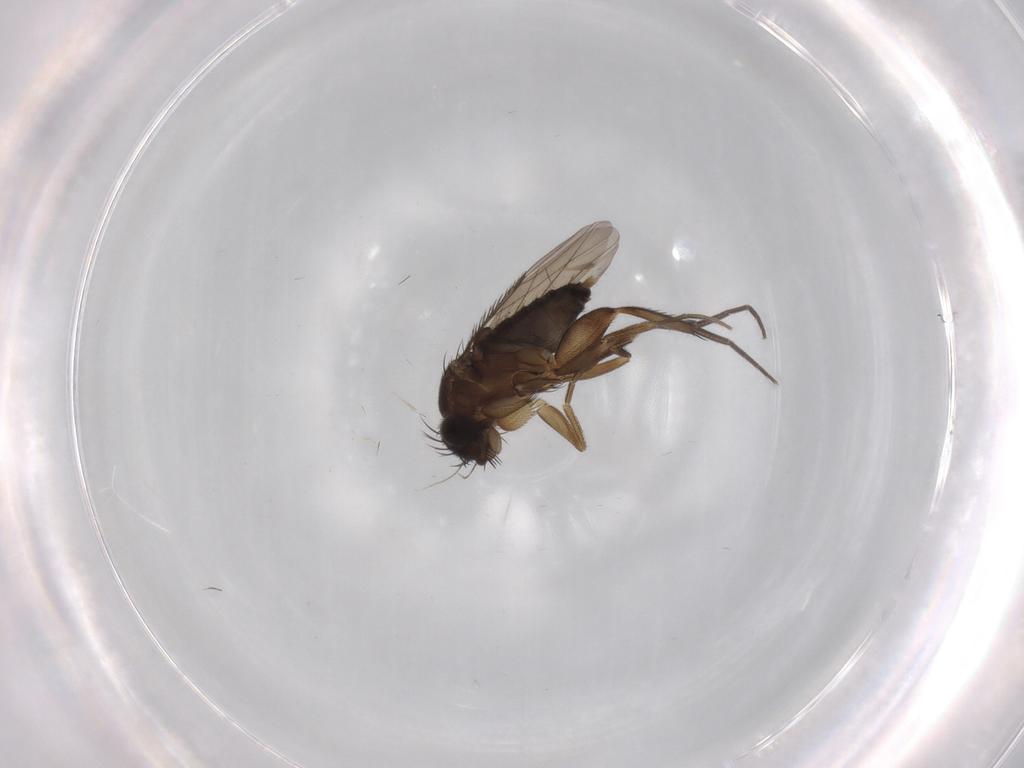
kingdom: Animalia
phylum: Arthropoda
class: Insecta
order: Diptera
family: Phoridae
